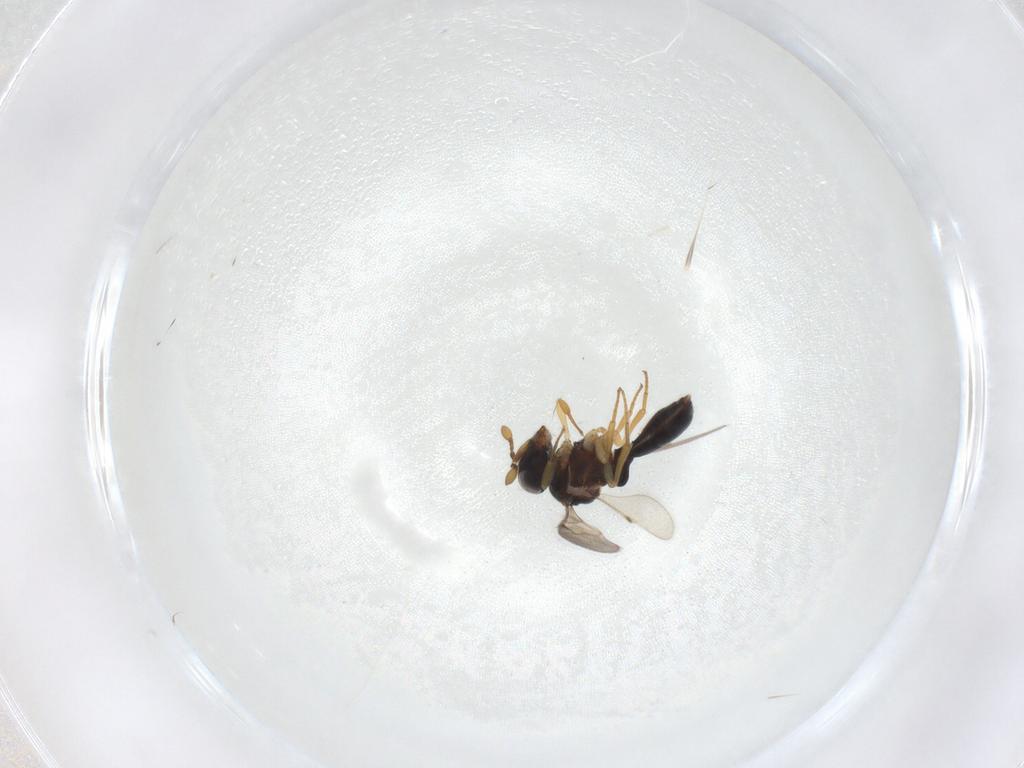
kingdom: Animalia
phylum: Arthropoda
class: Insecta
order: Hymenoptera
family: Scelionidae
